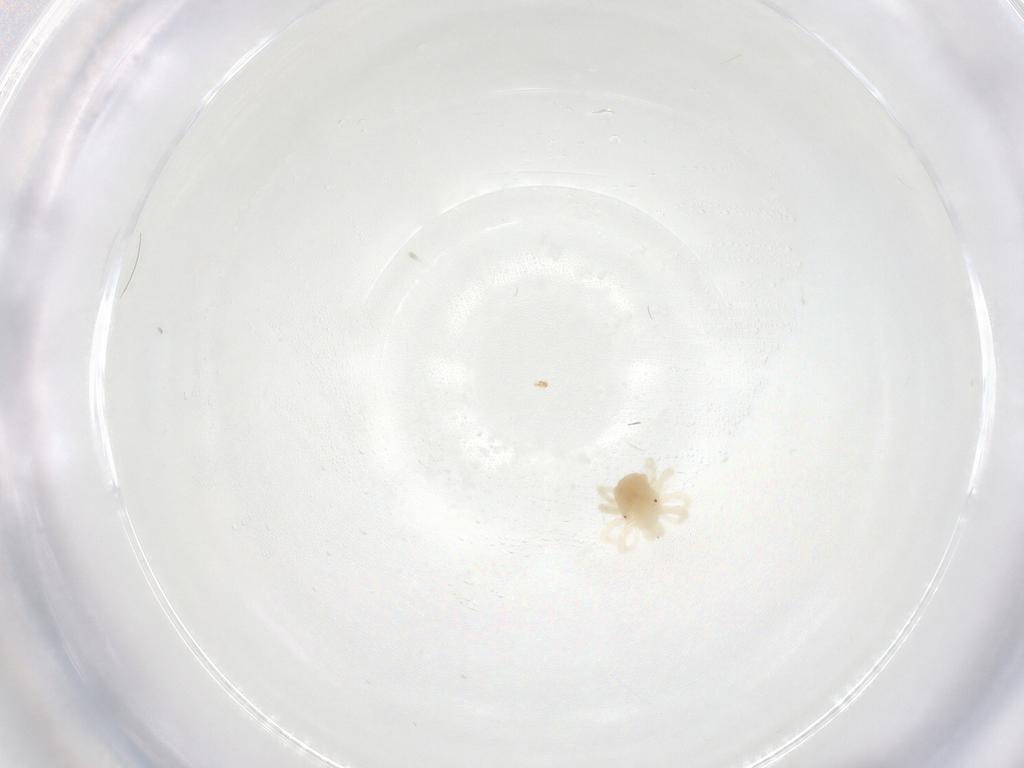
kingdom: Animalia
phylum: Arthropoda
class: Arachnida
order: Trombidiformes
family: Anystidae
